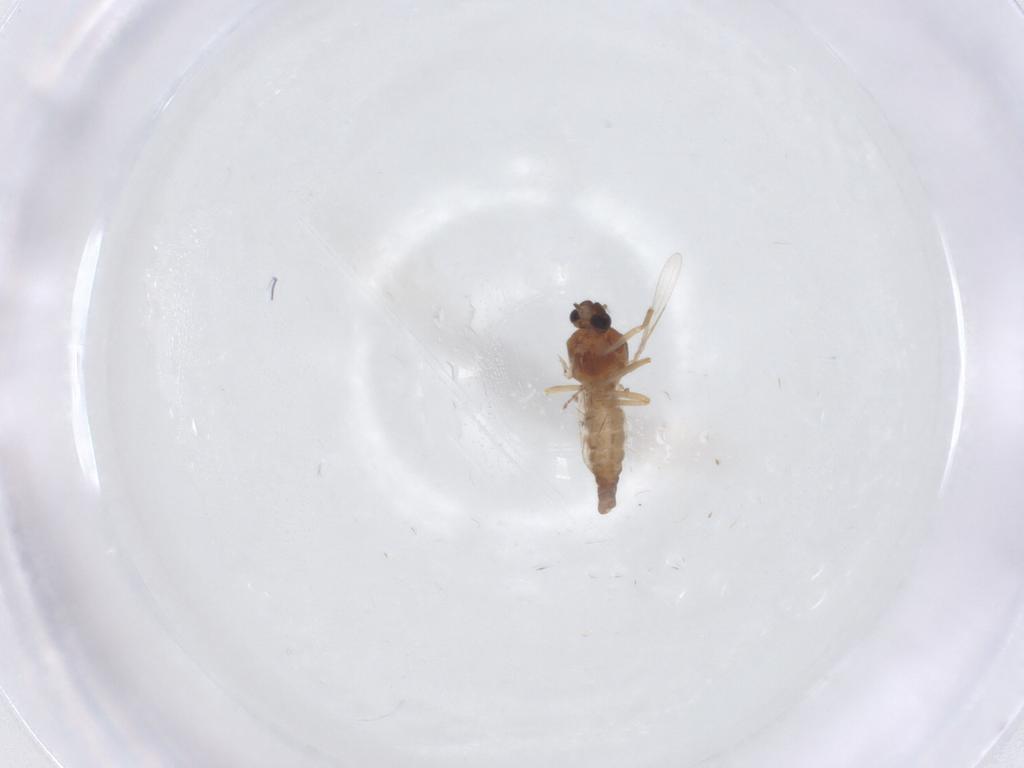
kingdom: Animalia
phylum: Arthropoda
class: Insecta
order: Diptera
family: Ceratopogonidae
